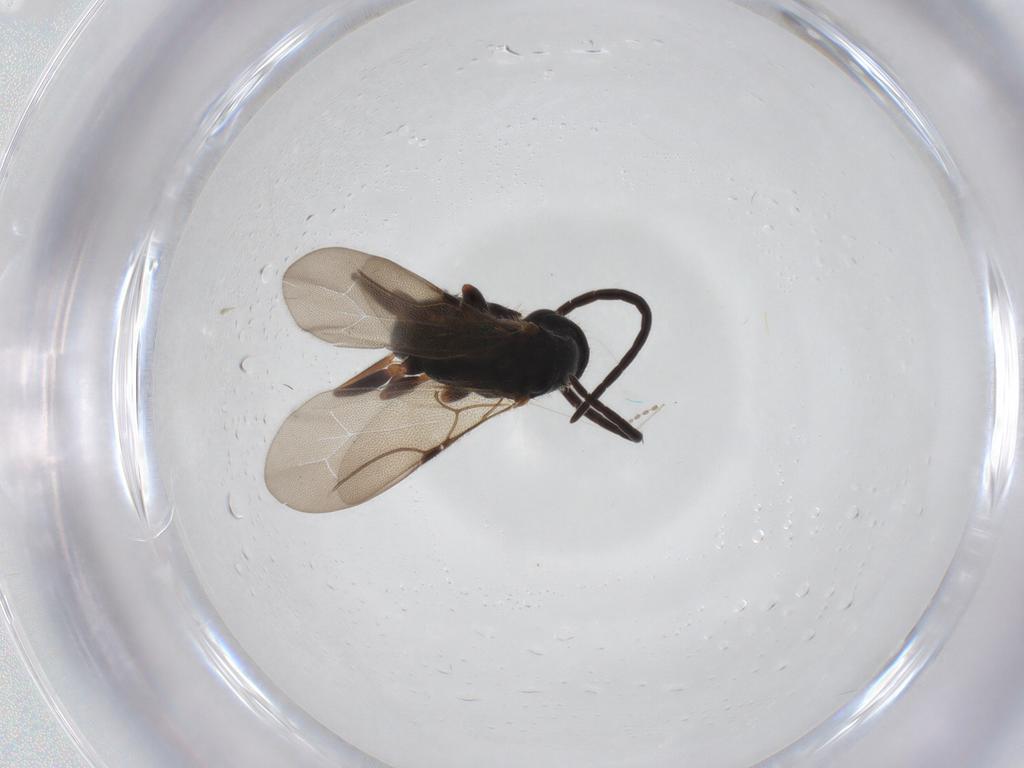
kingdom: Animalia
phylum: Arthropoda
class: Insecta
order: Hymenoptera
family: Bethylidae
